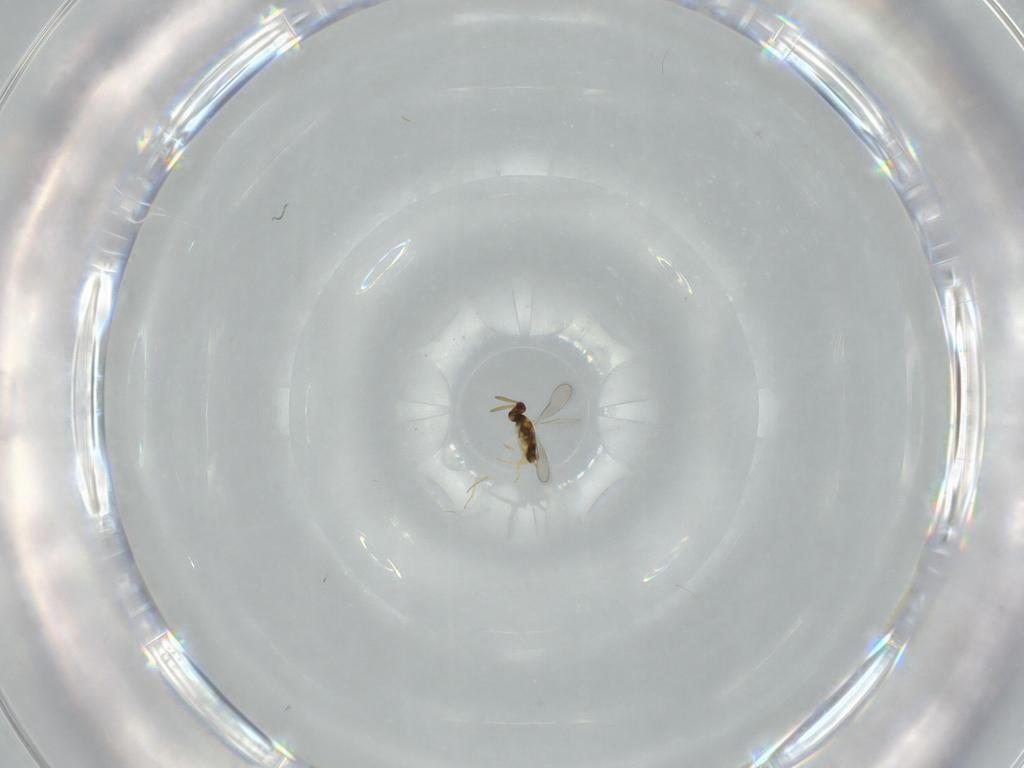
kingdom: Animalia
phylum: Arthropoda
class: Insecta
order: Hymenoptera
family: Aphelinidae
